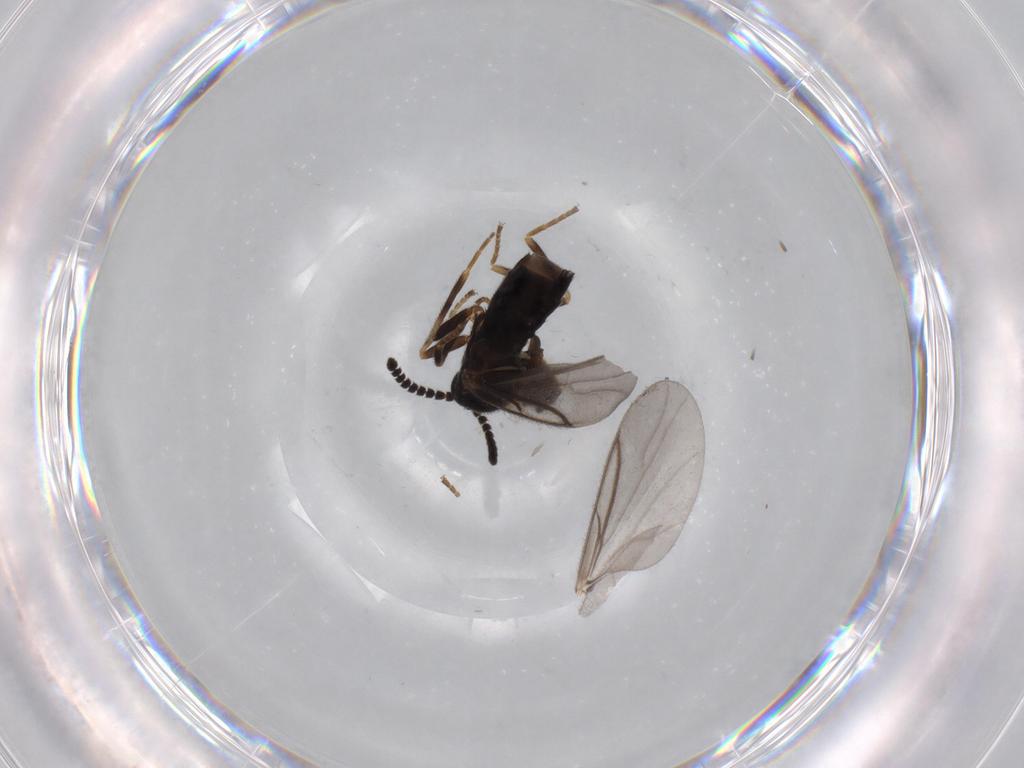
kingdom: Animalia
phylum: Arthropoda
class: Insecta
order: Diptera
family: Scatopsidae
